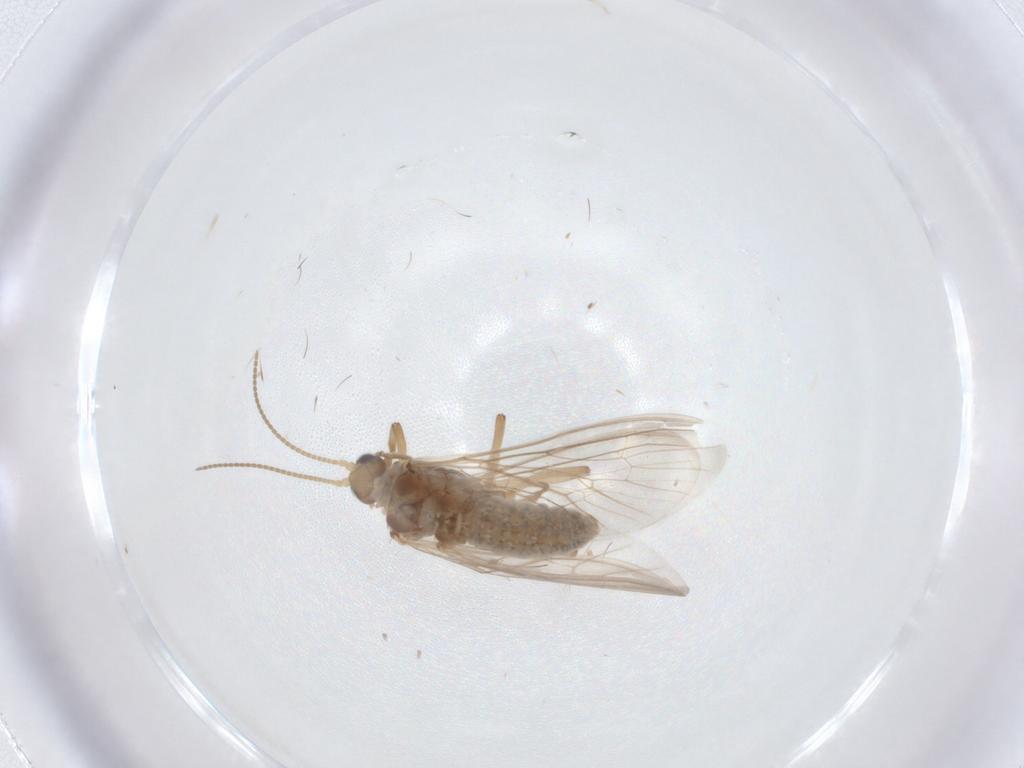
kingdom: Animalia
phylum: Arthropoda
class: Insecta
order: Neuroptera
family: Coniopterygidae
